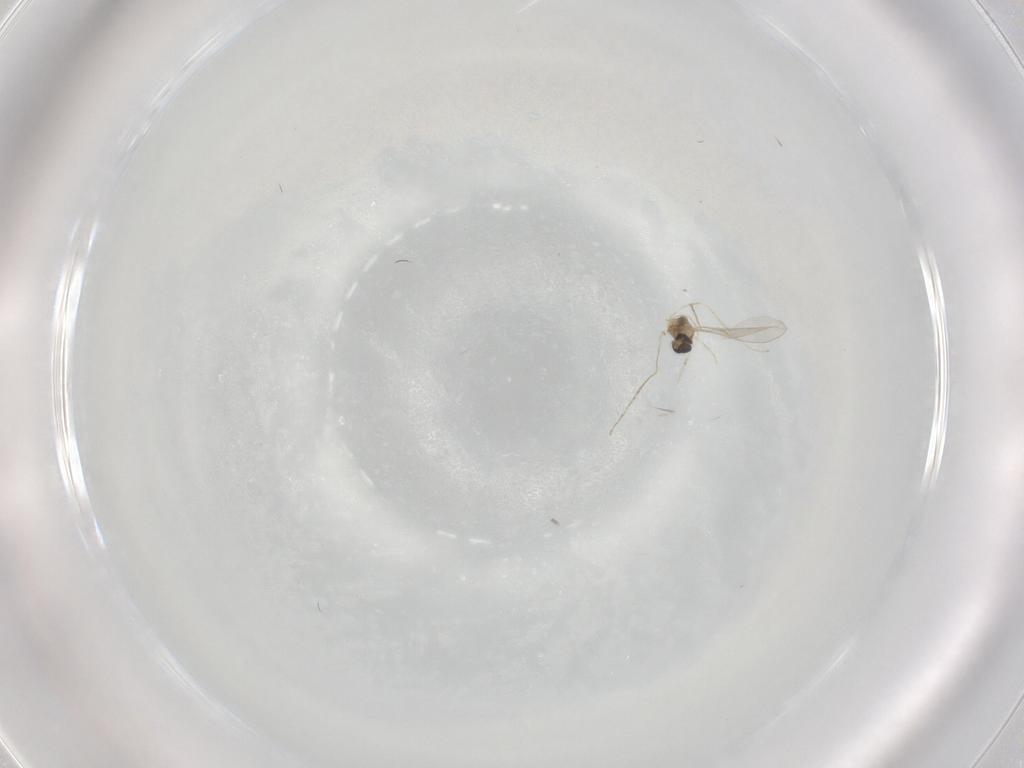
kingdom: Animalia
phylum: Arthropoda
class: Insecta
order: Diptera
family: Cecidomyiidae
